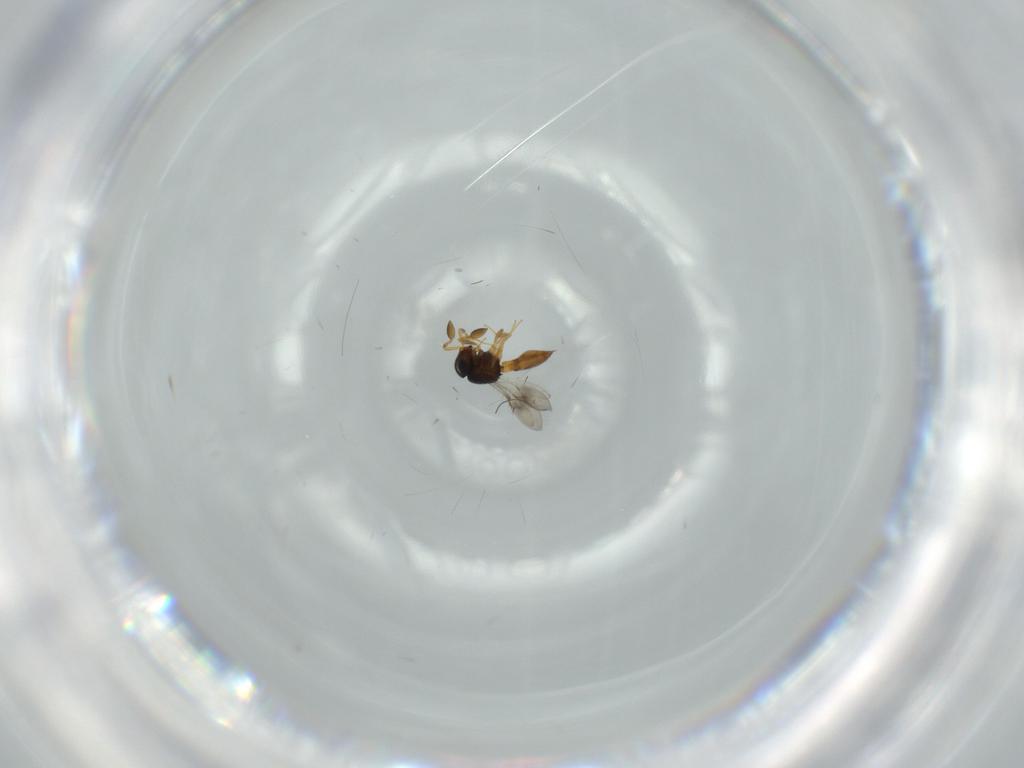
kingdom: Animalia
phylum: Arthropoda
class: Insecta
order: Hymenoptera
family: Scelionidae
